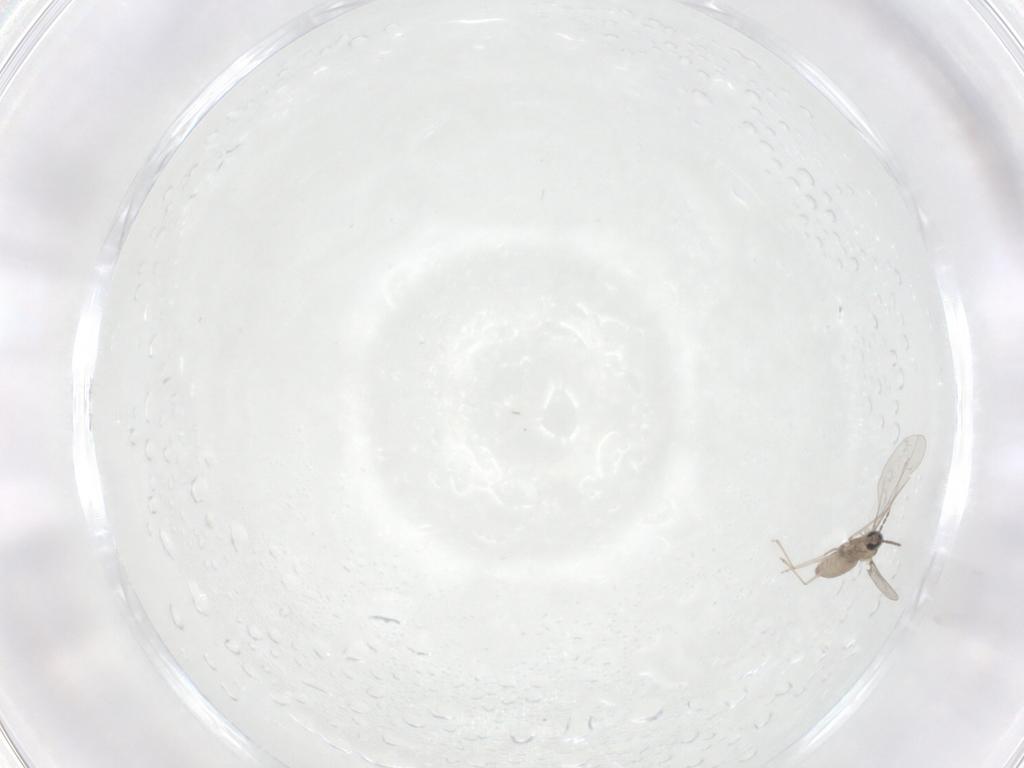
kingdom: Animalia
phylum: Arthropoda
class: Insecta
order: Diptera
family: Cecidomyiidae
